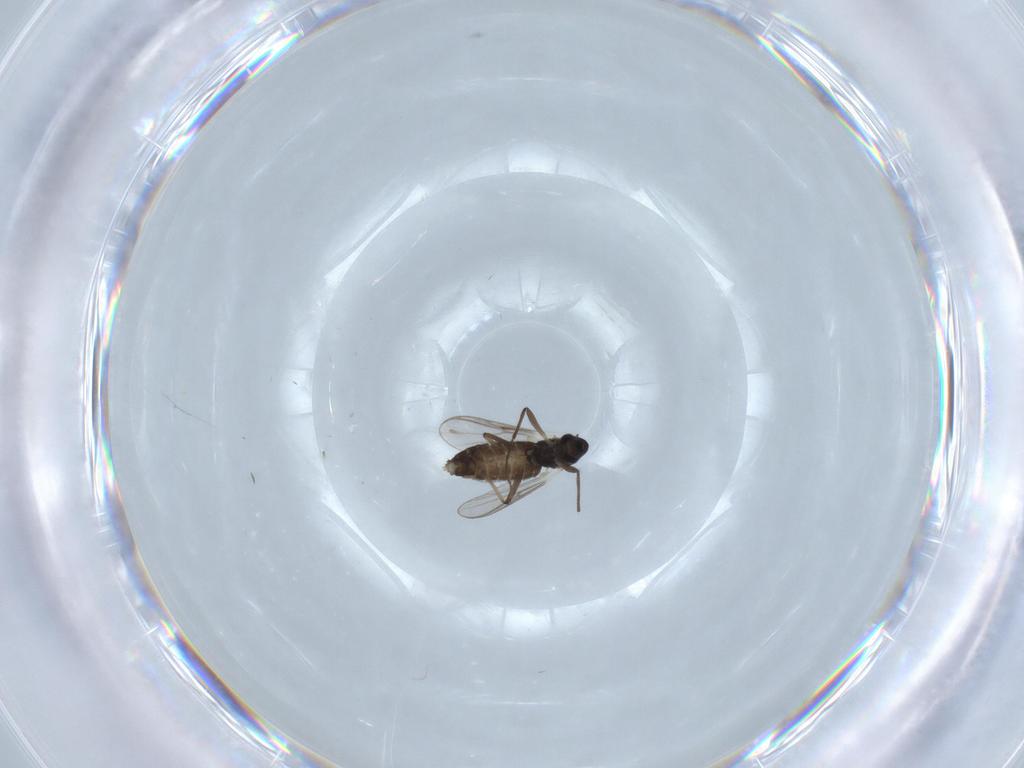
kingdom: Animalia
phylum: Arthropoda
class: Insecta
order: Diptera
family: Chironomidae
